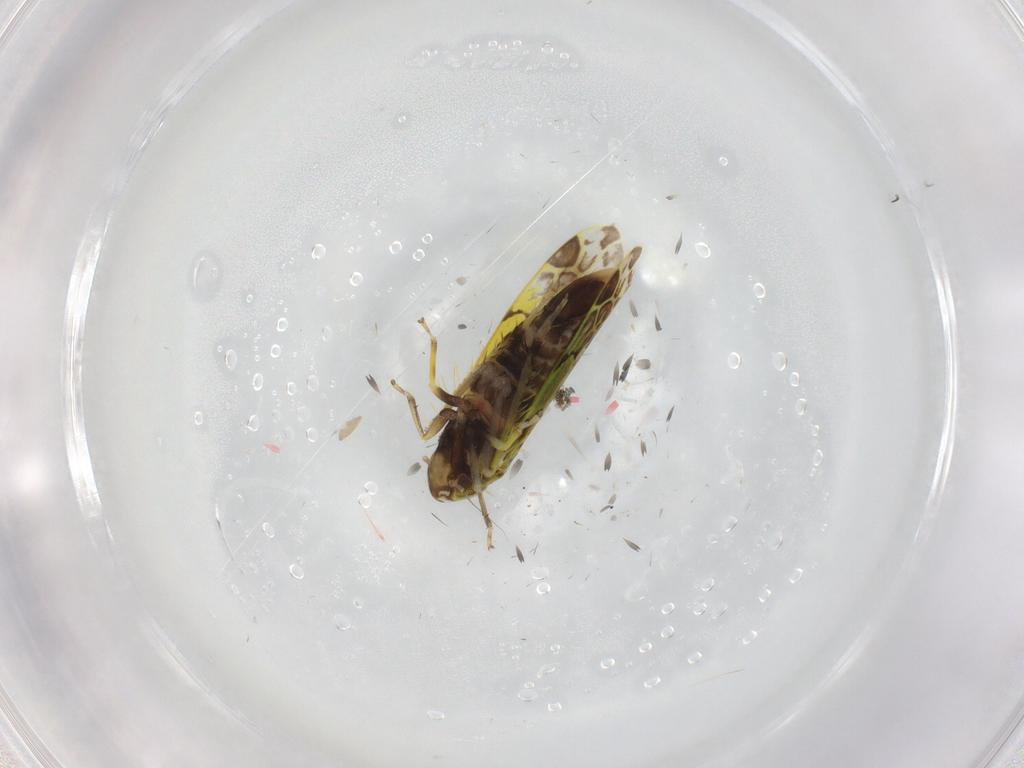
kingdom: Animalia
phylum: Arthropoda
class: Insecta
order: Hemiptera
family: Cicadellidae
